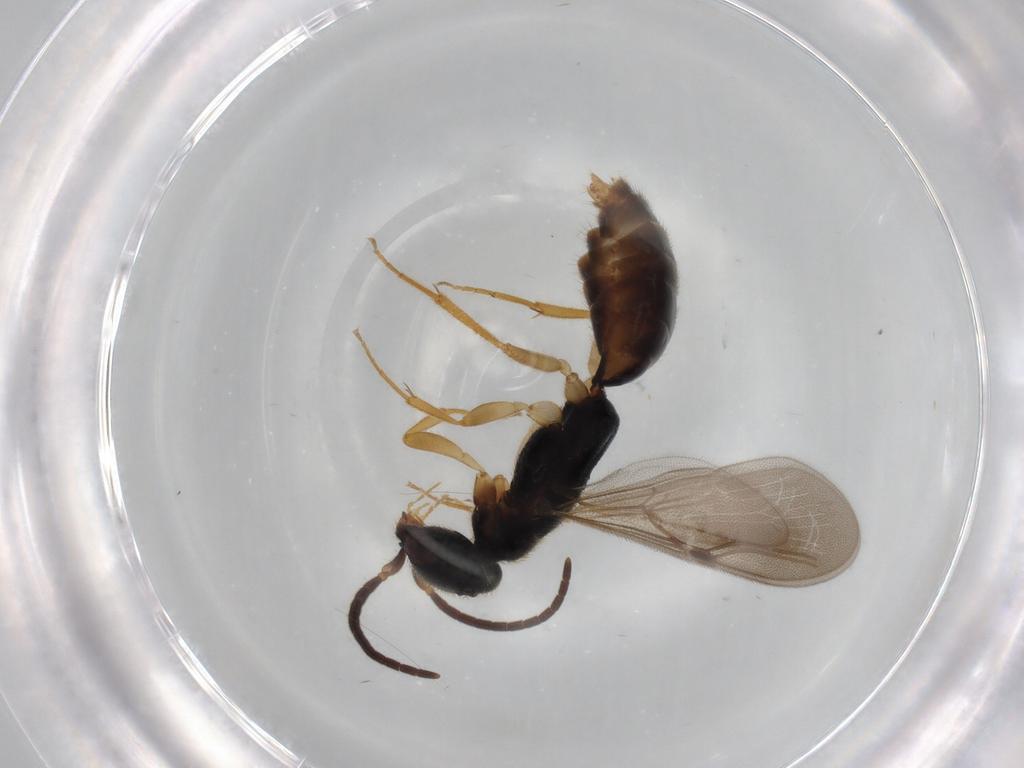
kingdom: Animalia
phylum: Arthropoda
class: Insecta
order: Hymenoptera
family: Bethylidae
